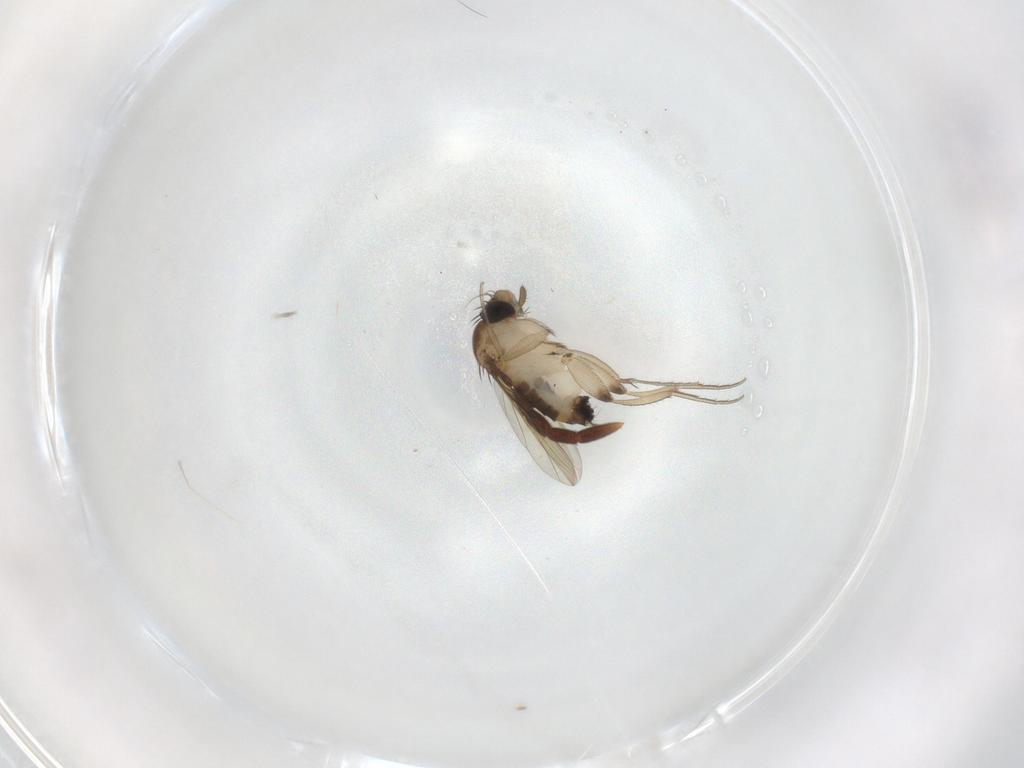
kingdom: Animalia
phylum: Arthropoda
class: Insecta
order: Diptera
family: Phoridae
